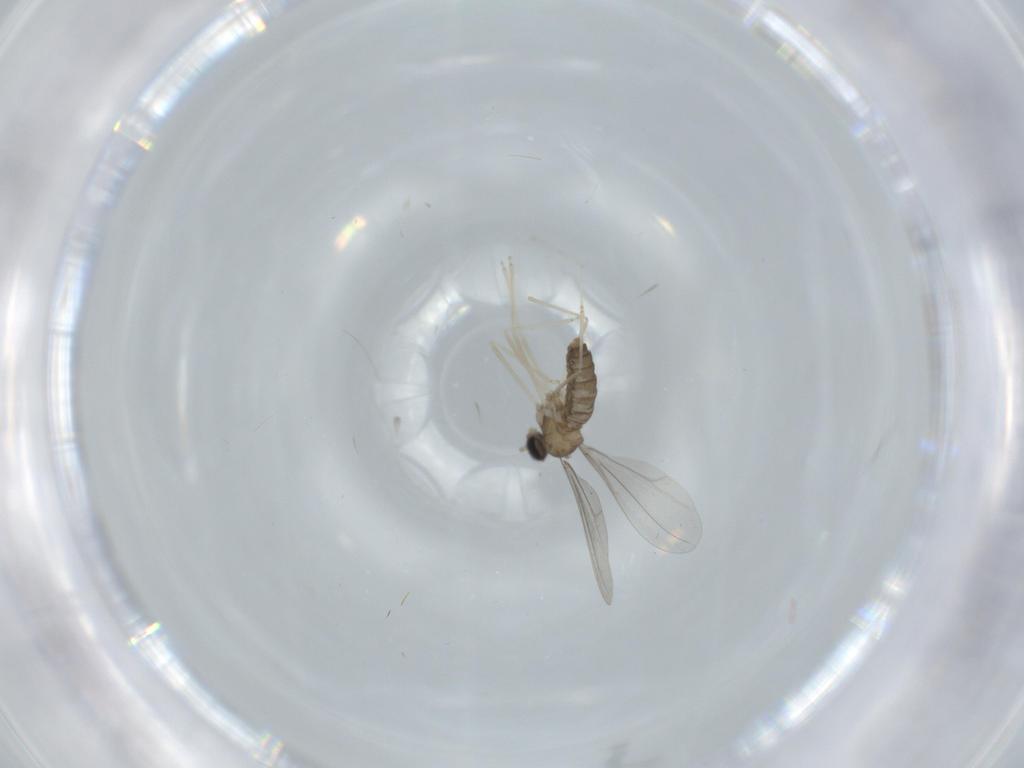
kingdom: Animalia
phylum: Arthropoda
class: Insecta
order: Diptera
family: Cecidomyiidae
